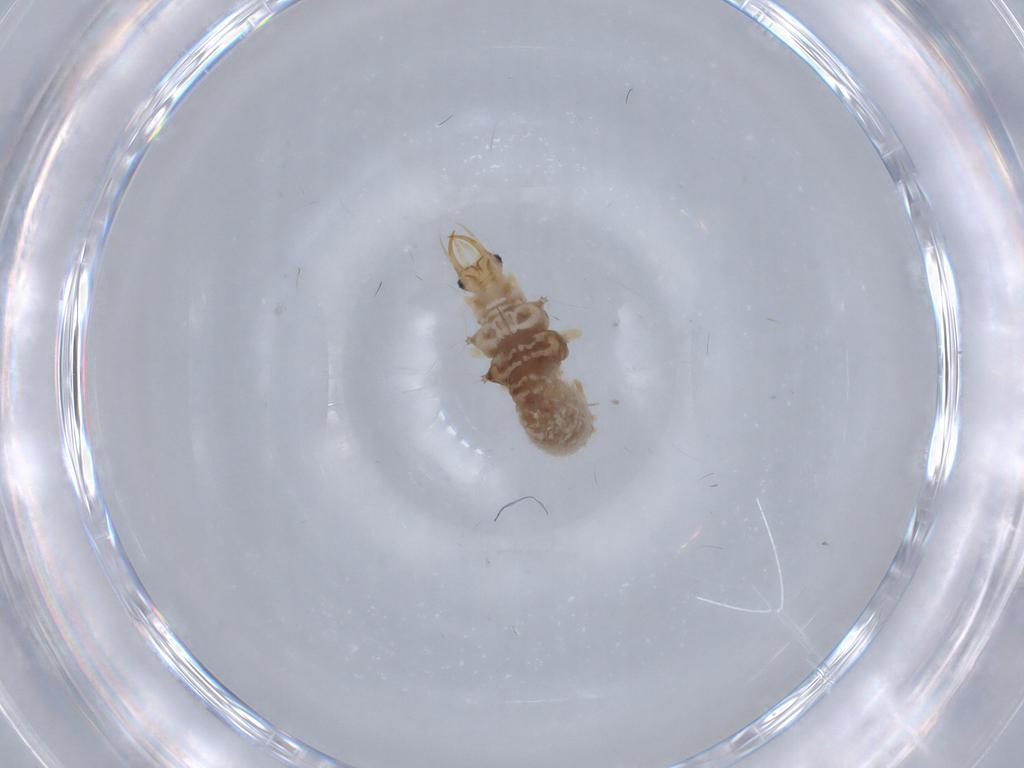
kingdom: Animalia
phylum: Arthropoda
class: Insecta
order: Neuroptera
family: Chrysopidae
